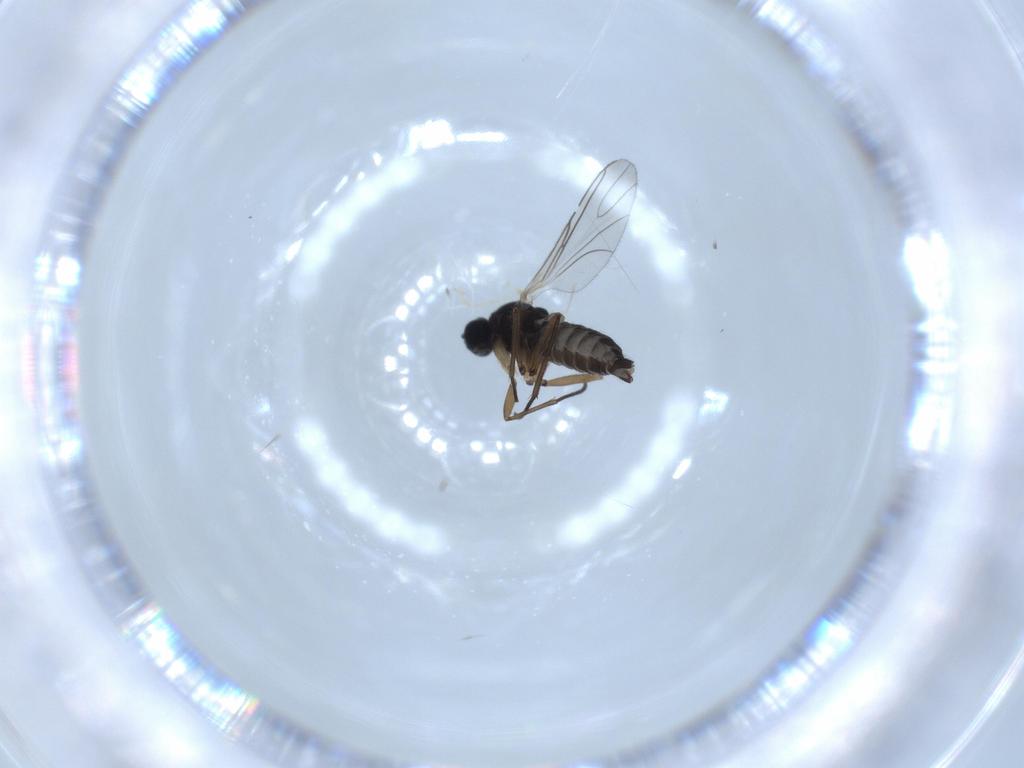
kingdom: Animalia
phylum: Arthropoda
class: Insecta
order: Diptera
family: Sciaridae
